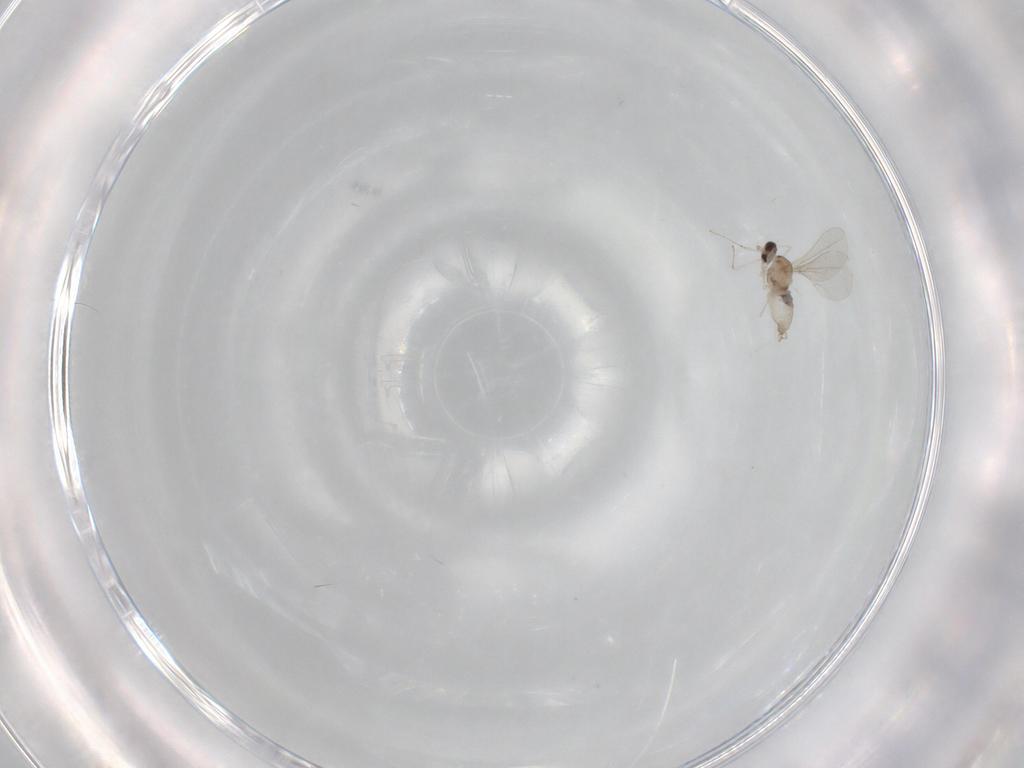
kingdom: Animalia
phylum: Arthropoda
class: Insecta
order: Diptera
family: Cecidomyiidae
